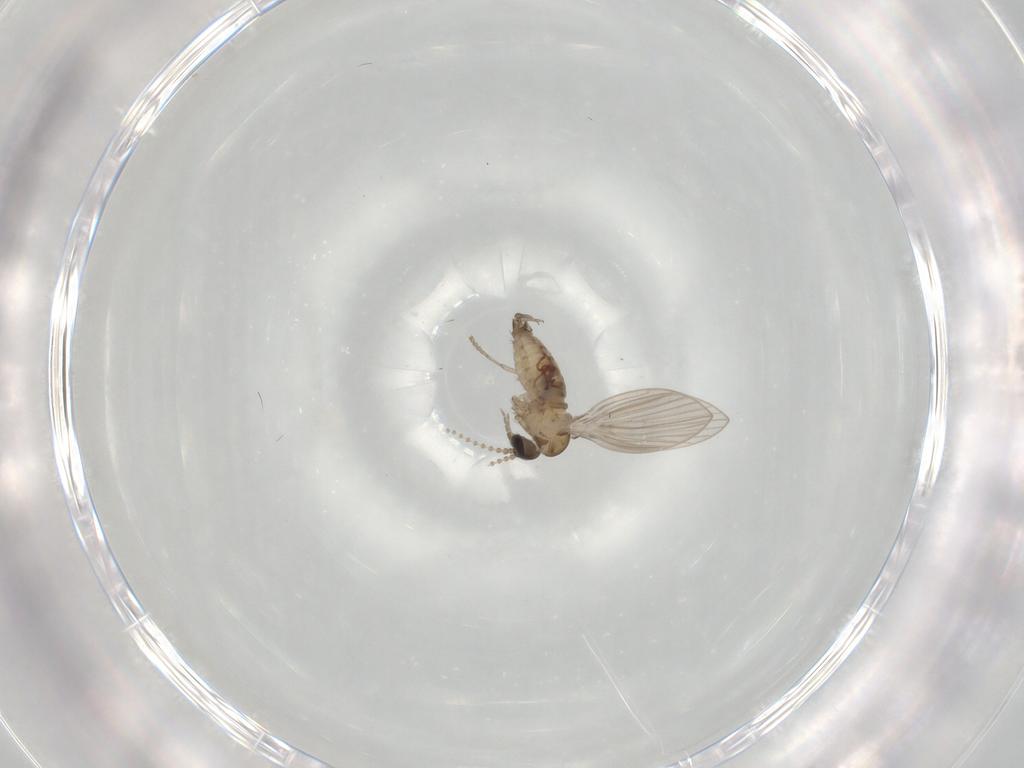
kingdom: Animalia
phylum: Arthropoda
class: Insecta
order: Diptera
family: Psychodidae
